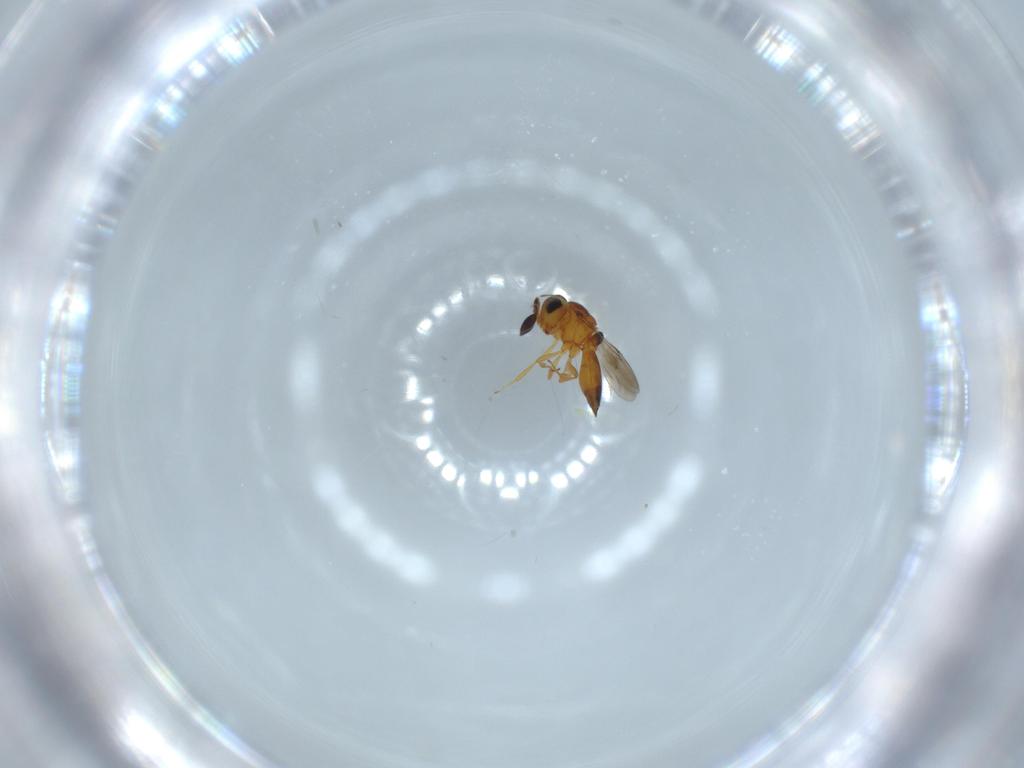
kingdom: Animalia
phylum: Arthropoda
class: Insecta
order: Hymenoptera
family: Scelionidae
